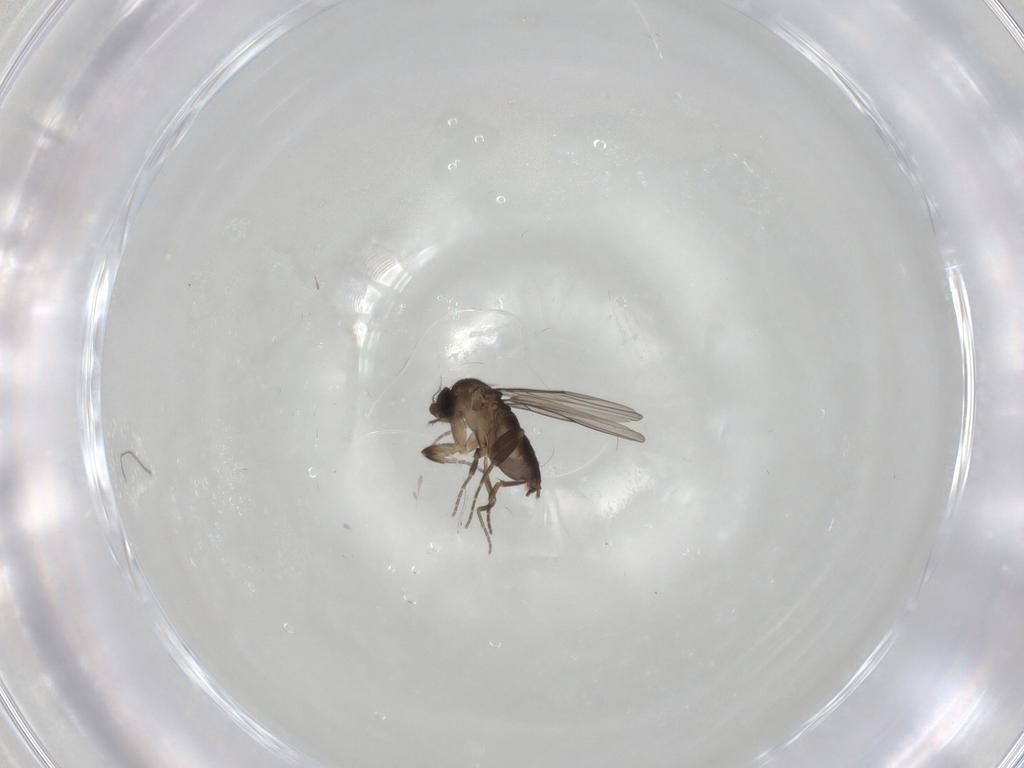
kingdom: Animalia
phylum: Arthropoda
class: Insecta
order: Diptera
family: Phoridae
